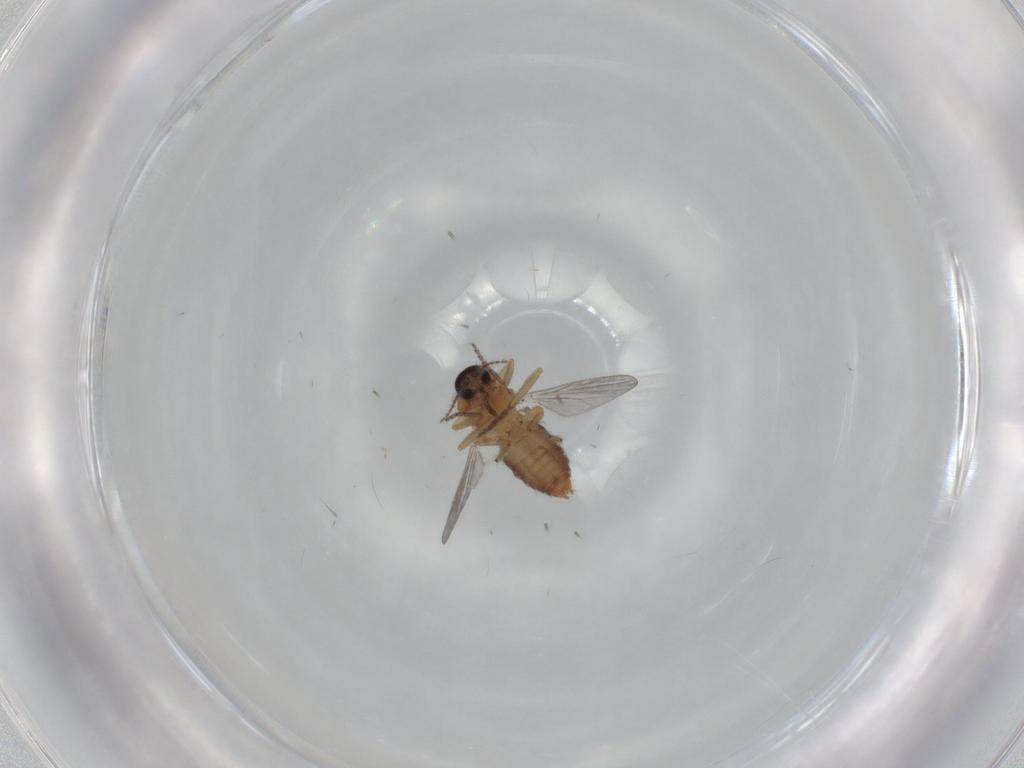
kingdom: Animalia
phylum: Arthropoda
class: Insecta
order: Diptera
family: Ceratopogonidae
